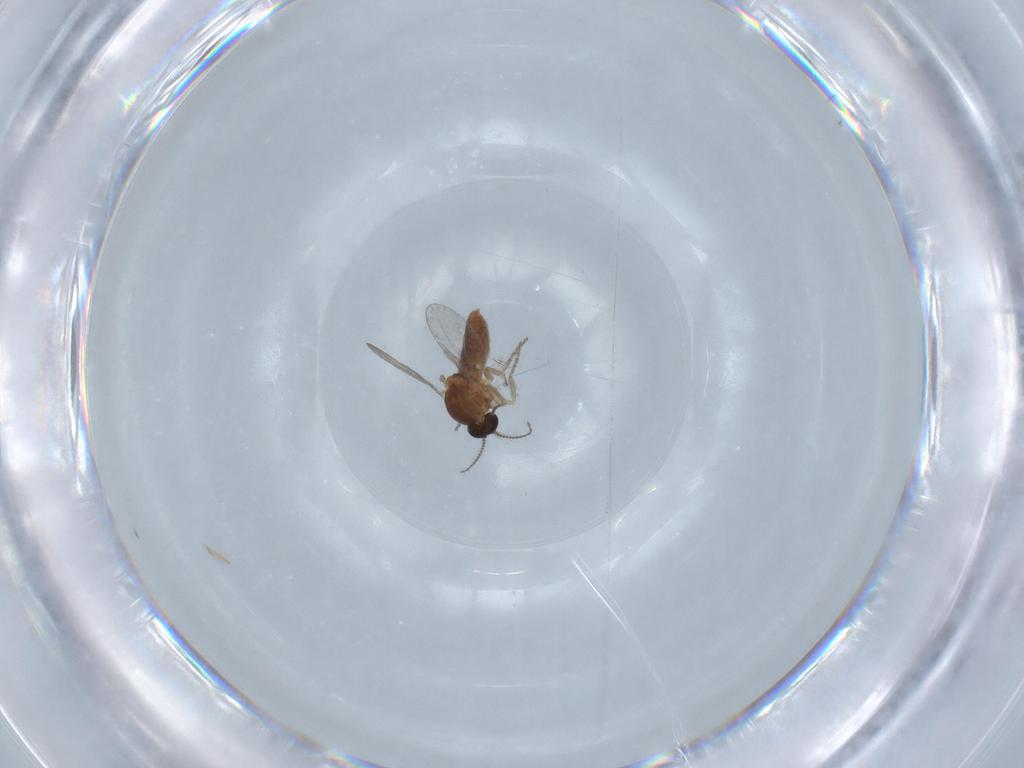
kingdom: Animalia
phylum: Arthropoda
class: Insecta
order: Diptera
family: Ceratopogonidae
